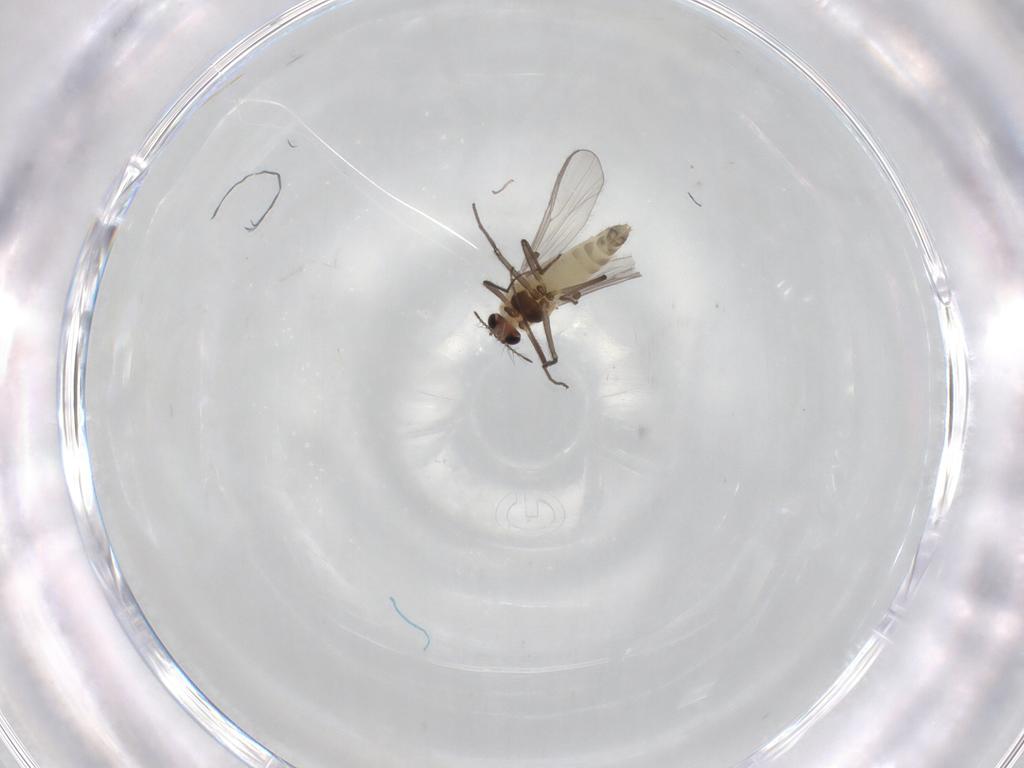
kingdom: Animalia
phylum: Arthropoda
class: Insecta
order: Diptera
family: Chironomidae
